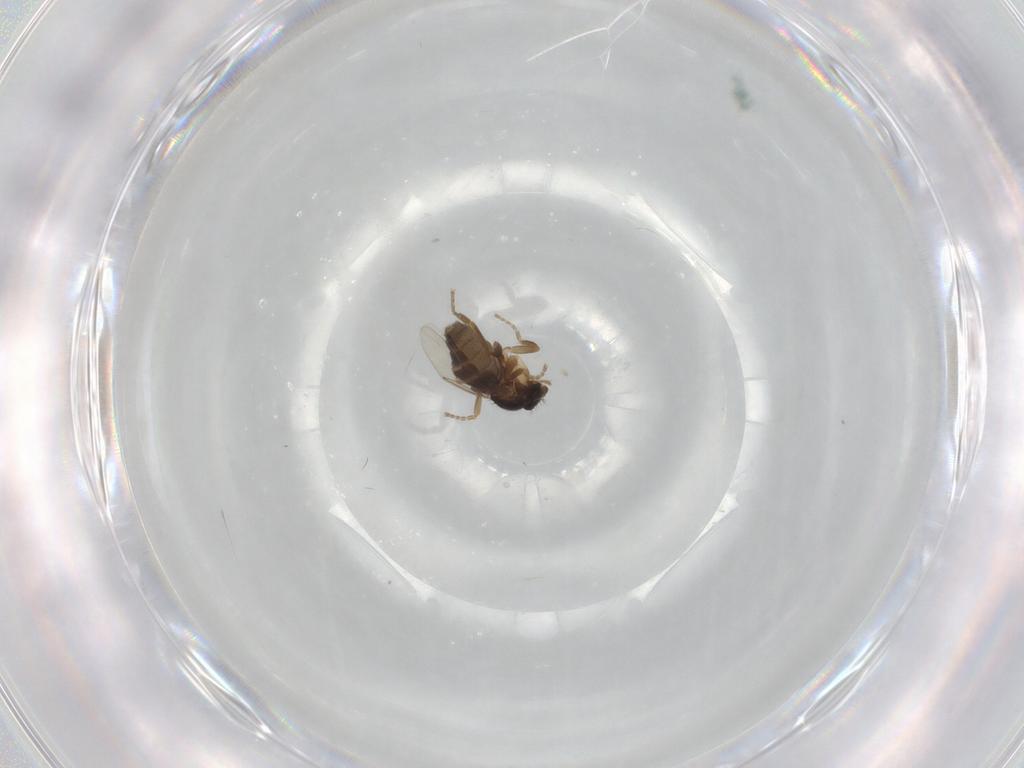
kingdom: Animalia
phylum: Arthropoda
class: Insecta
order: Diptera
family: Phoridae
